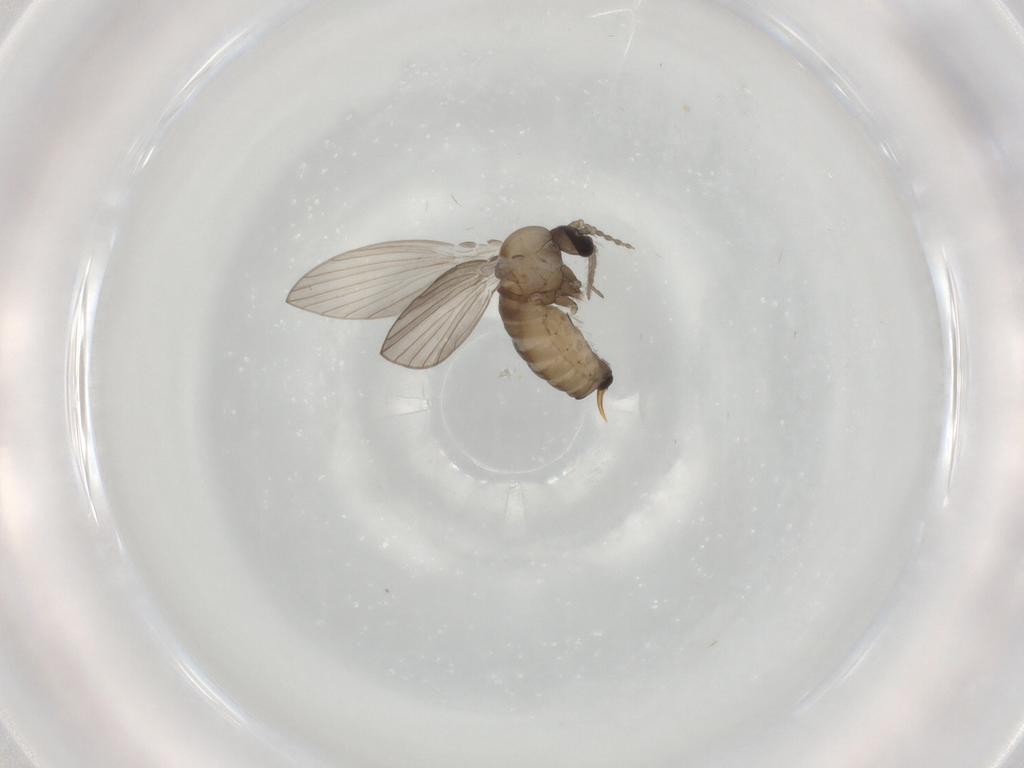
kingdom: Animalia
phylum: Arthropoda
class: Insecta
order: Diptera
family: Psychodidae
